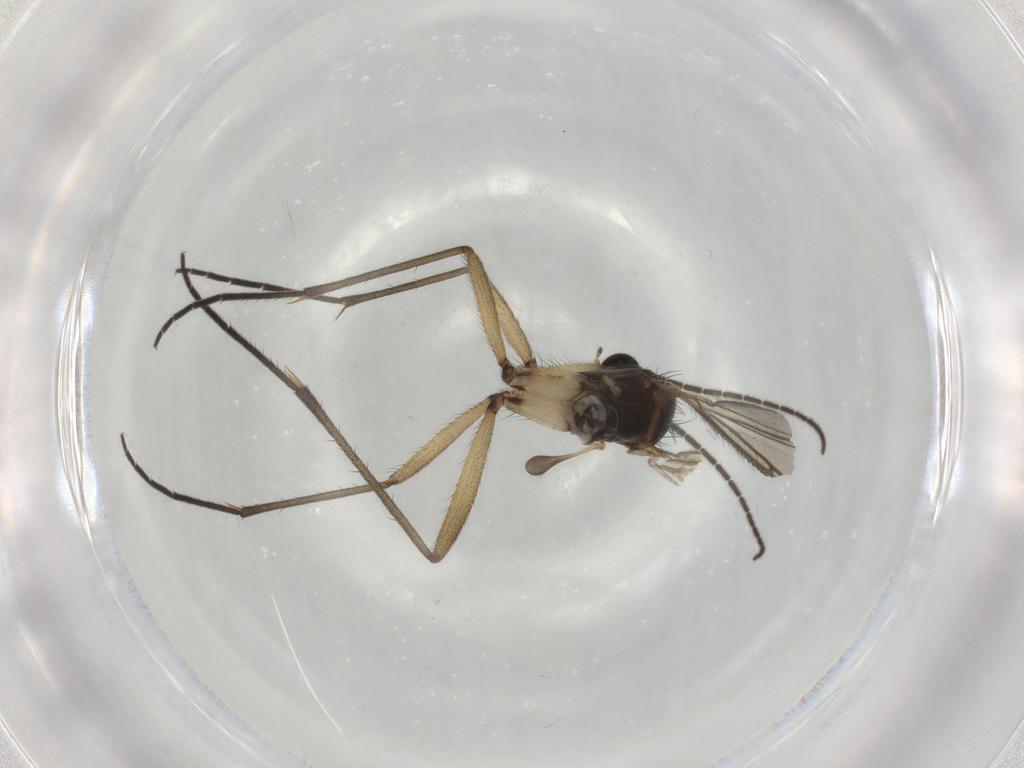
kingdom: Animalia
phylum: Arthropoda
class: Insecta
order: Diptera
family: Sciaridae
